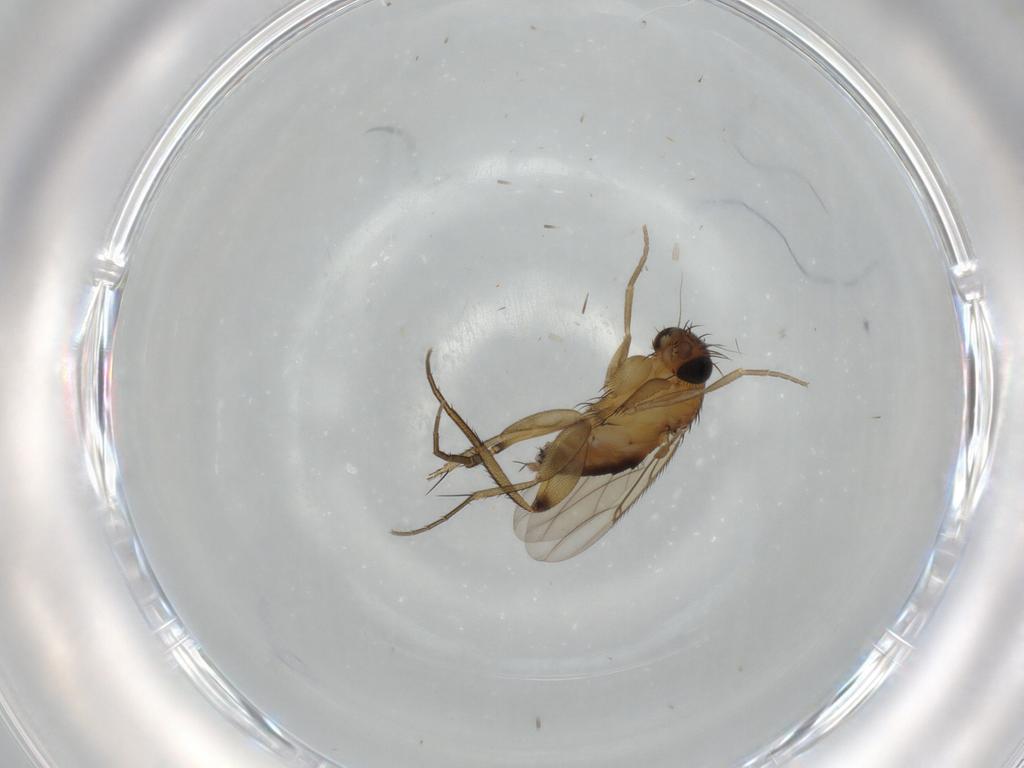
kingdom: Animalia
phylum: Arthropoda
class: Insecta
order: Diptera
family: Phoridae
